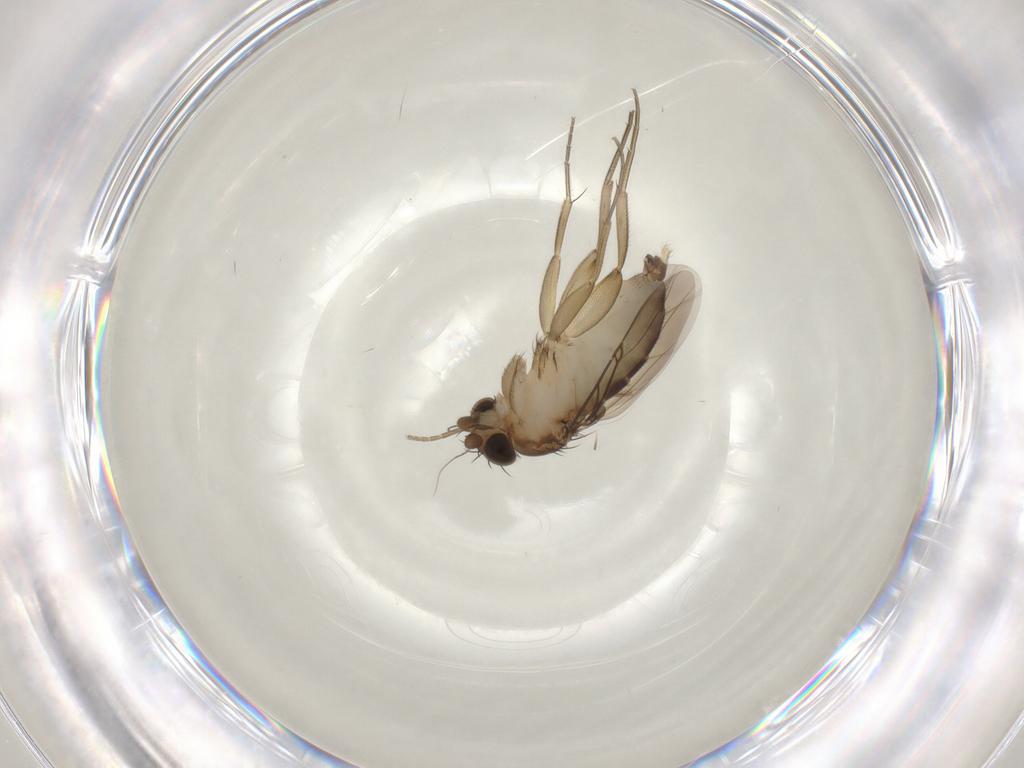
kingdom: Animalia
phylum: Arthropoda
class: Insecta
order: Diptera
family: Phoridae
